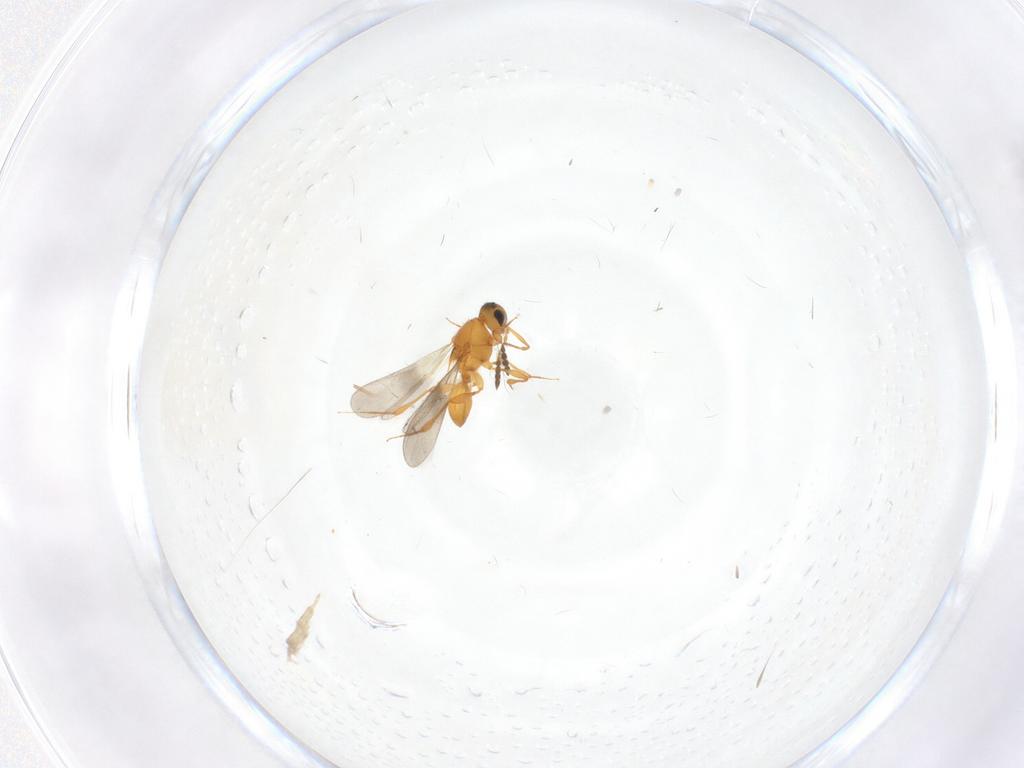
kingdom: Animalia
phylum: Arthropoda
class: Insecta
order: Hymenoptera
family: Platygastridae
